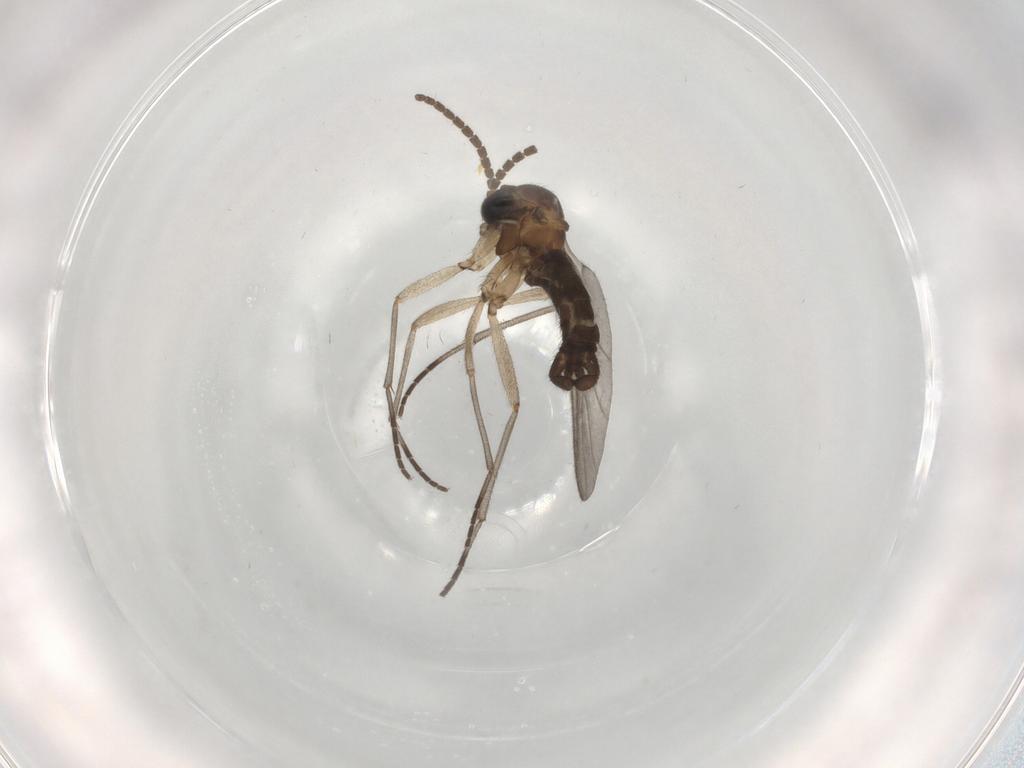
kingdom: Animalia
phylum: Arthropoda
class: Insecta
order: Diptera
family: Sciaridae
